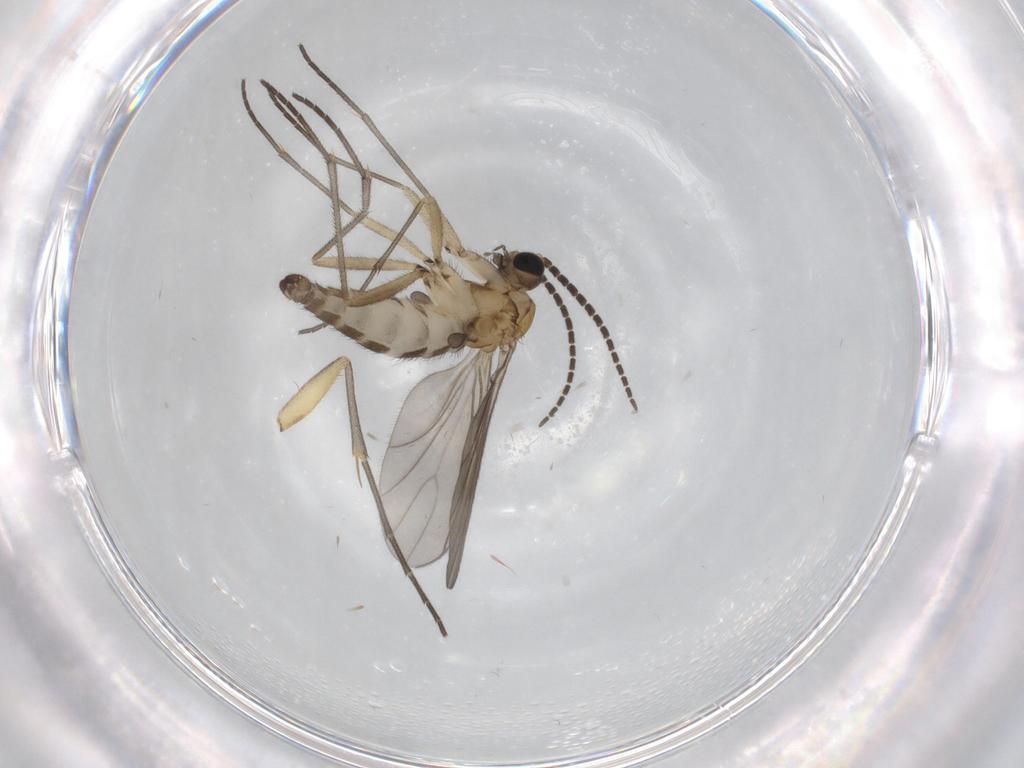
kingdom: Animalia
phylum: Arthropoda
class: Insecta
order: Diptera
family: Sciaridae
